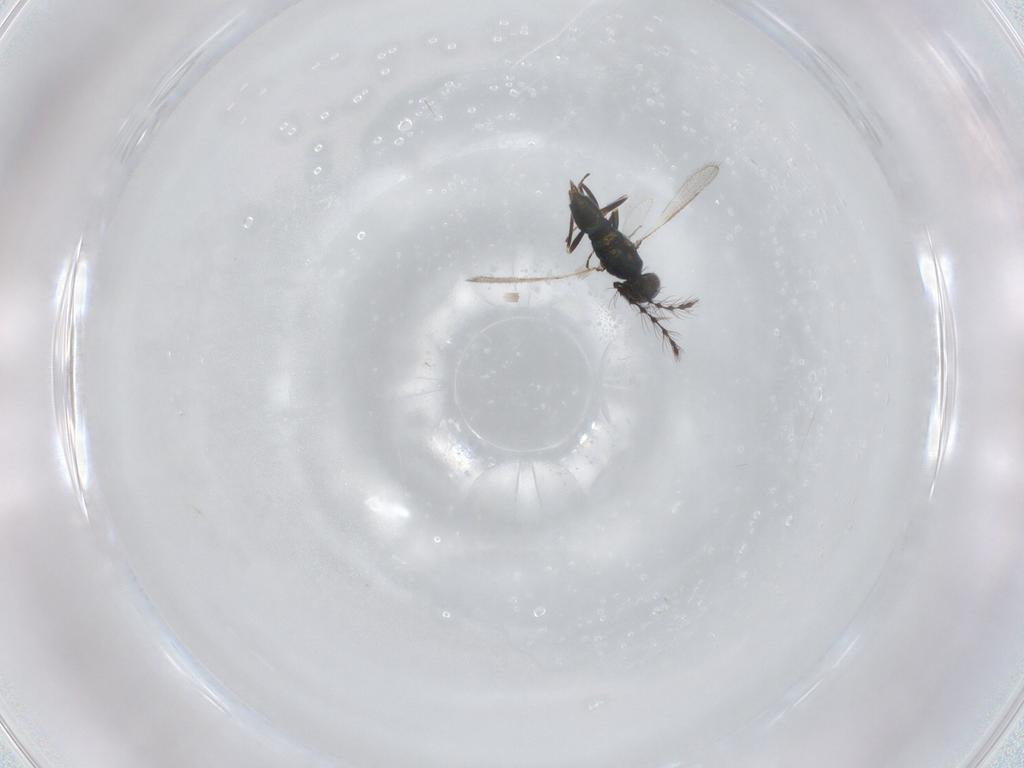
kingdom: Animalia
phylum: Arthropoda
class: Insecta
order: Hymenoptera
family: Eulophidae
